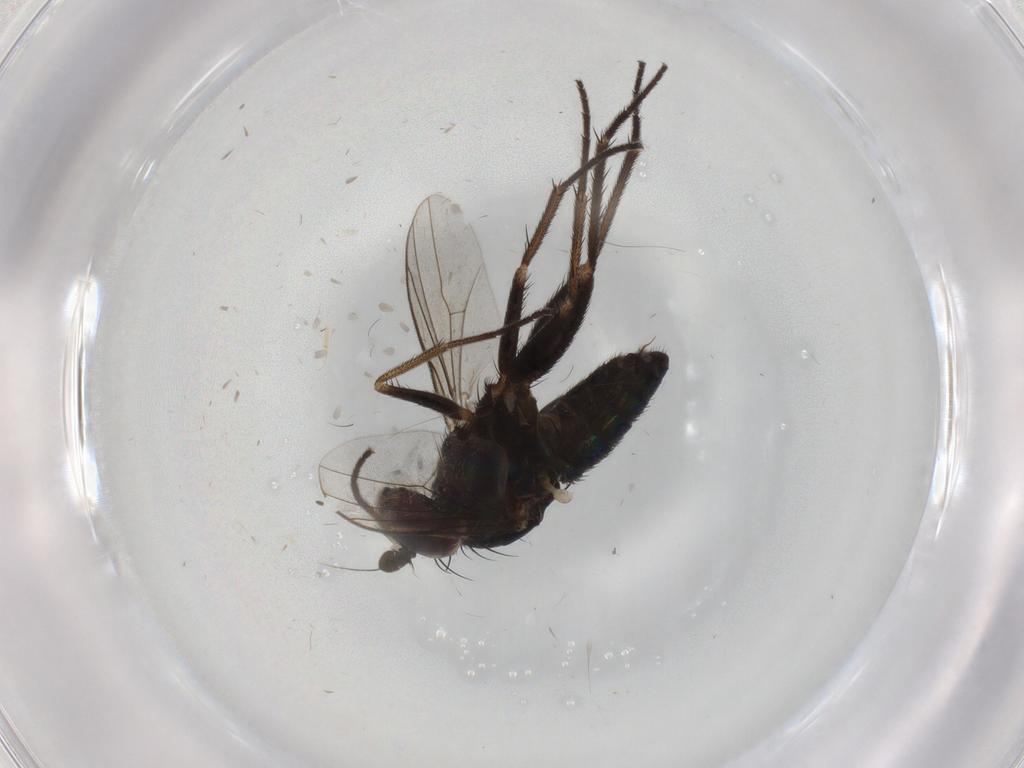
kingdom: Animalia
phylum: Arthropoda
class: Insecta
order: Diptera
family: Dolichopodidae
